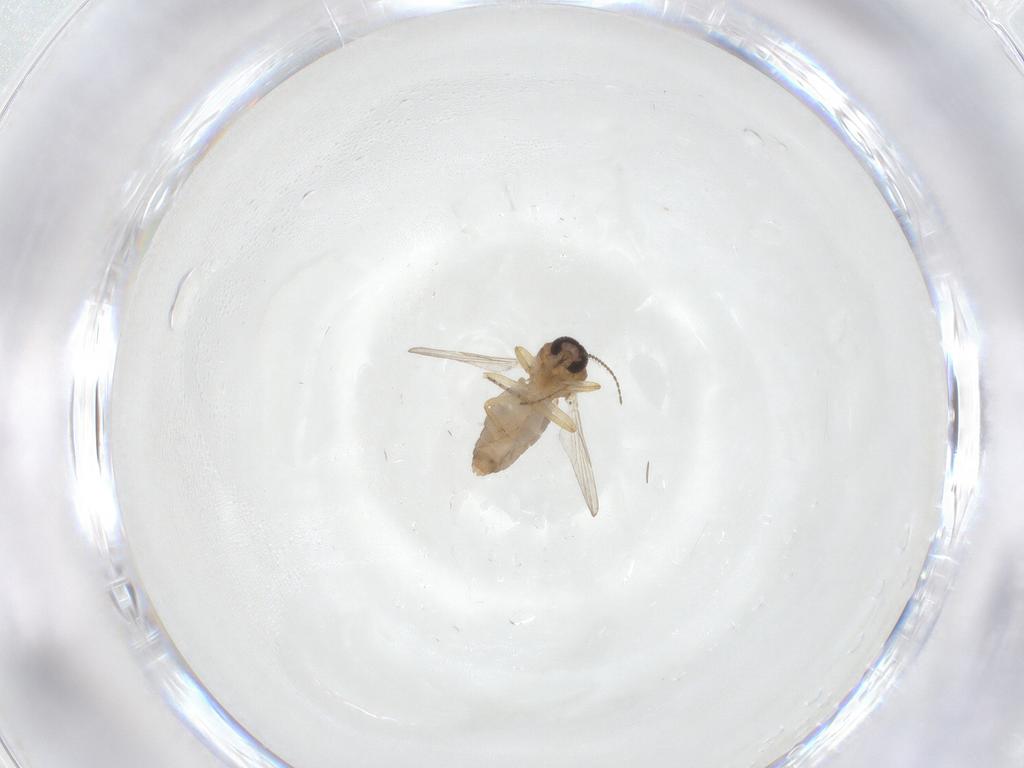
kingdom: Animalia
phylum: Arthropoda
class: Insecta
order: Diptera
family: Ceratopogonidae
